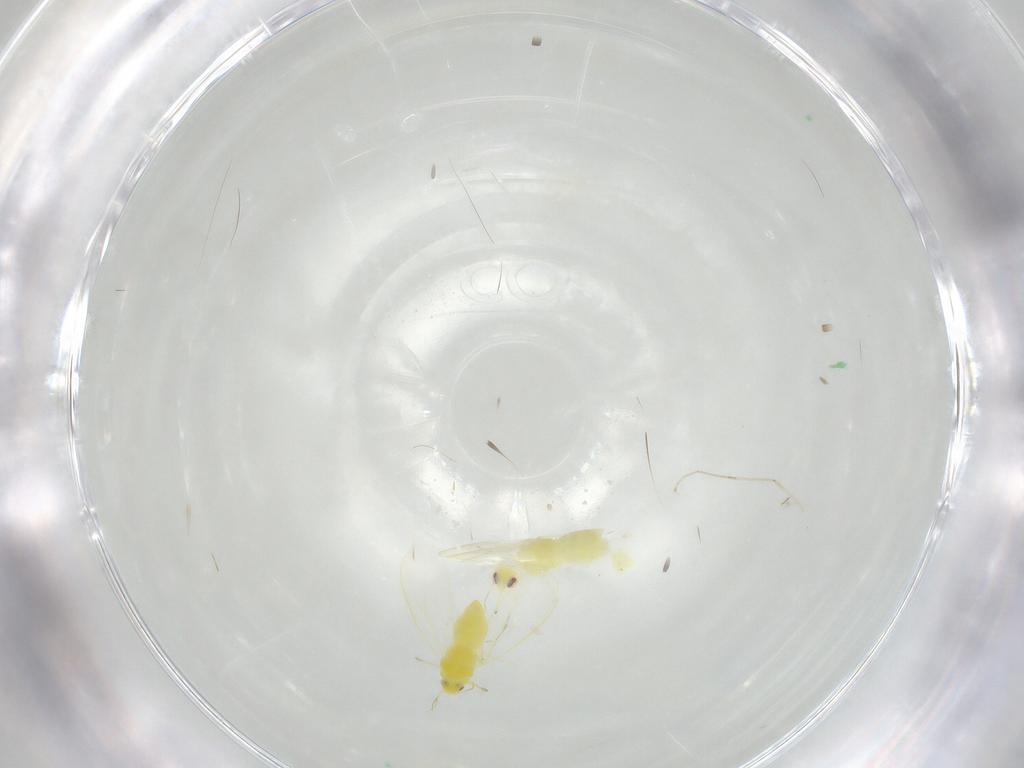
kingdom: Animalia
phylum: Arthropoda
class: Insecta
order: Hemiptera
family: Aleyrodidae
